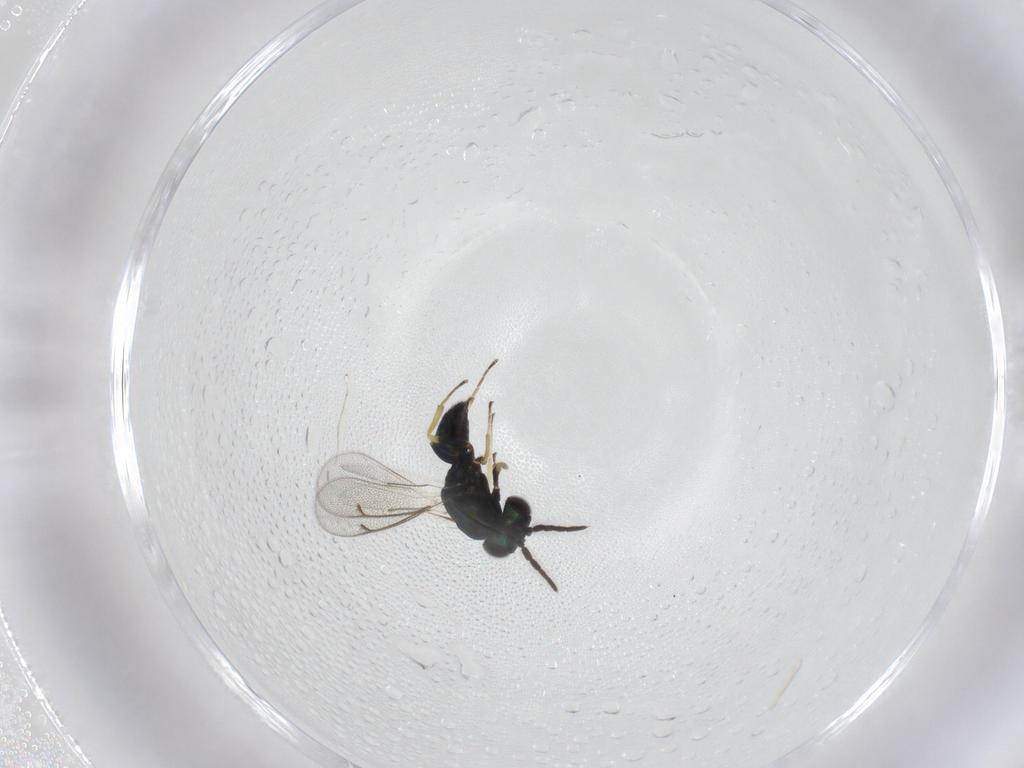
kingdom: Animalia
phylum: Arthropoda
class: Insecta
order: Hymenoptera
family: Eulophidae
